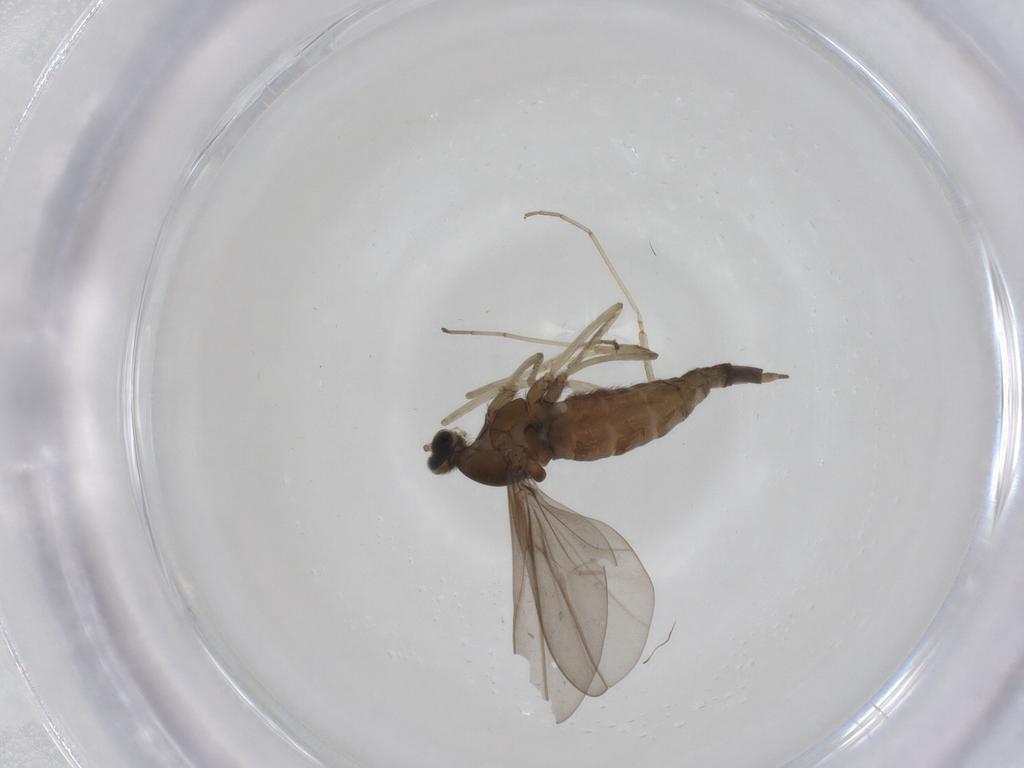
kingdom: Animalia
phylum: Arthropoda
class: Insecta
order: Diptera
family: Cecidomyiidae
